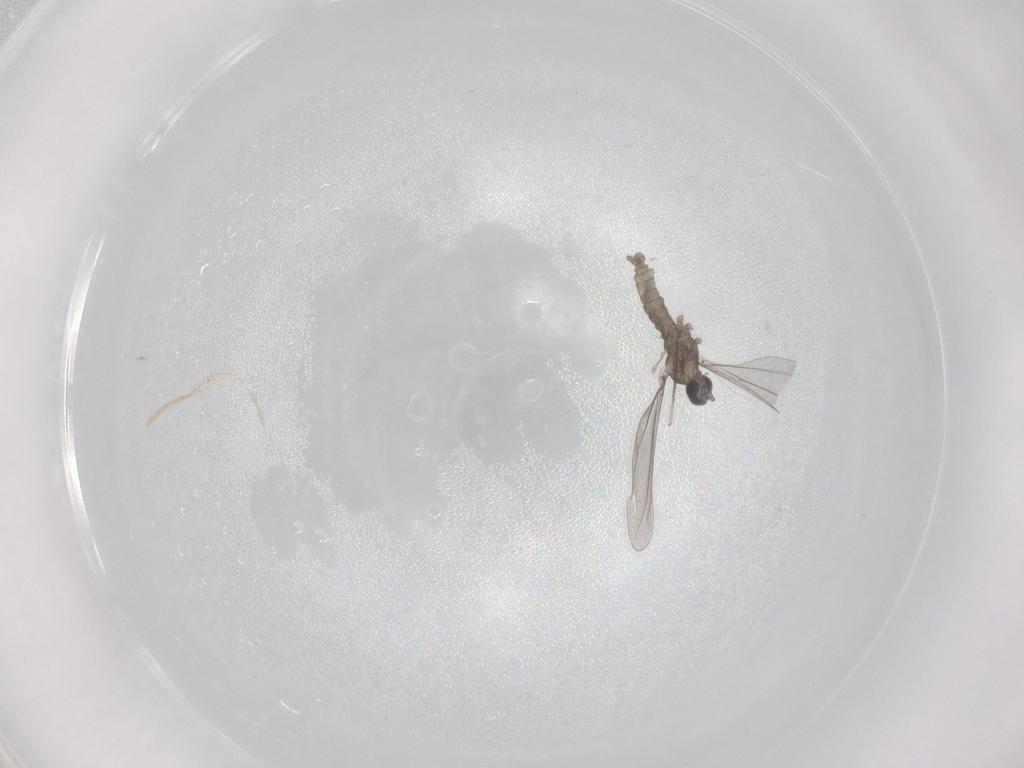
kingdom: Animalia
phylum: Arthropoda
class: Insecta
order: Diptera
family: Cecidomyiidae
